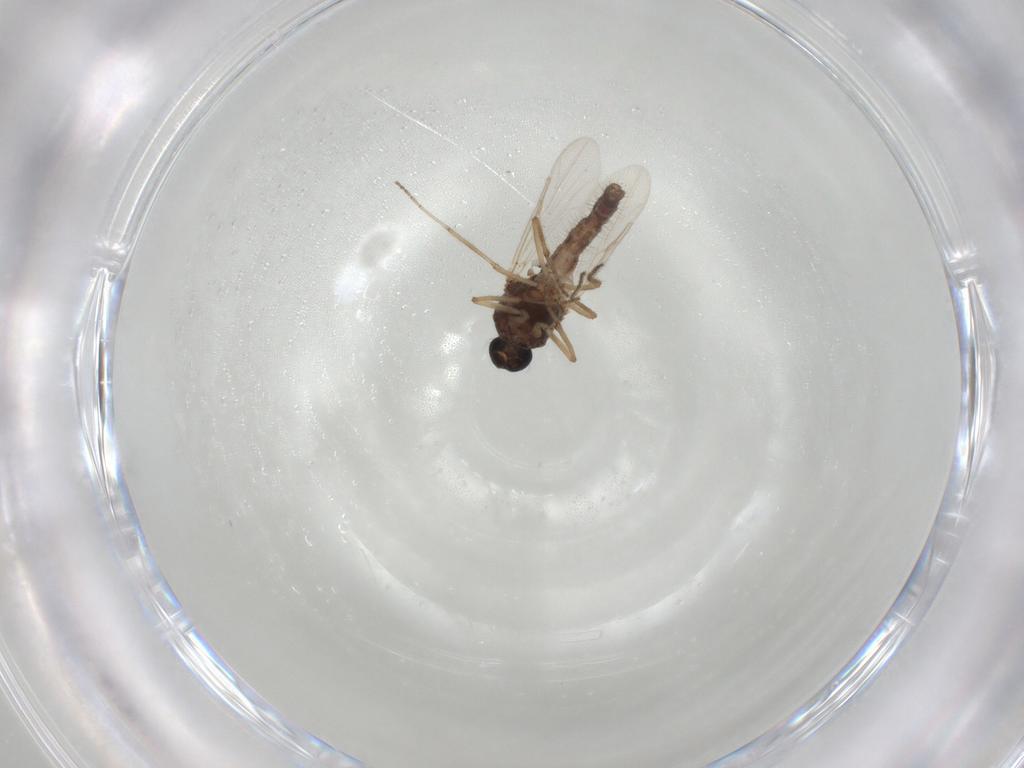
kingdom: Animalia
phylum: Arthropoda
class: Insecta
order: Diptera
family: Ceratopogonidae
